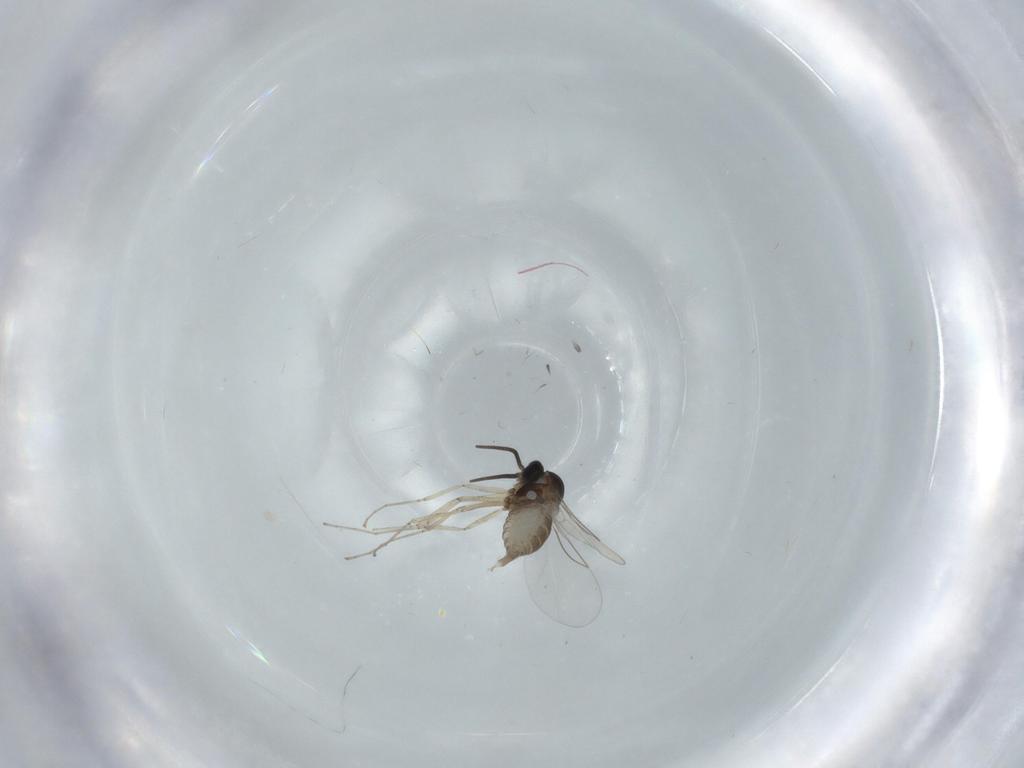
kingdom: Animalia
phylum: Arthropoda
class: Insecta
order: Diptera
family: Cecidomyiidae
